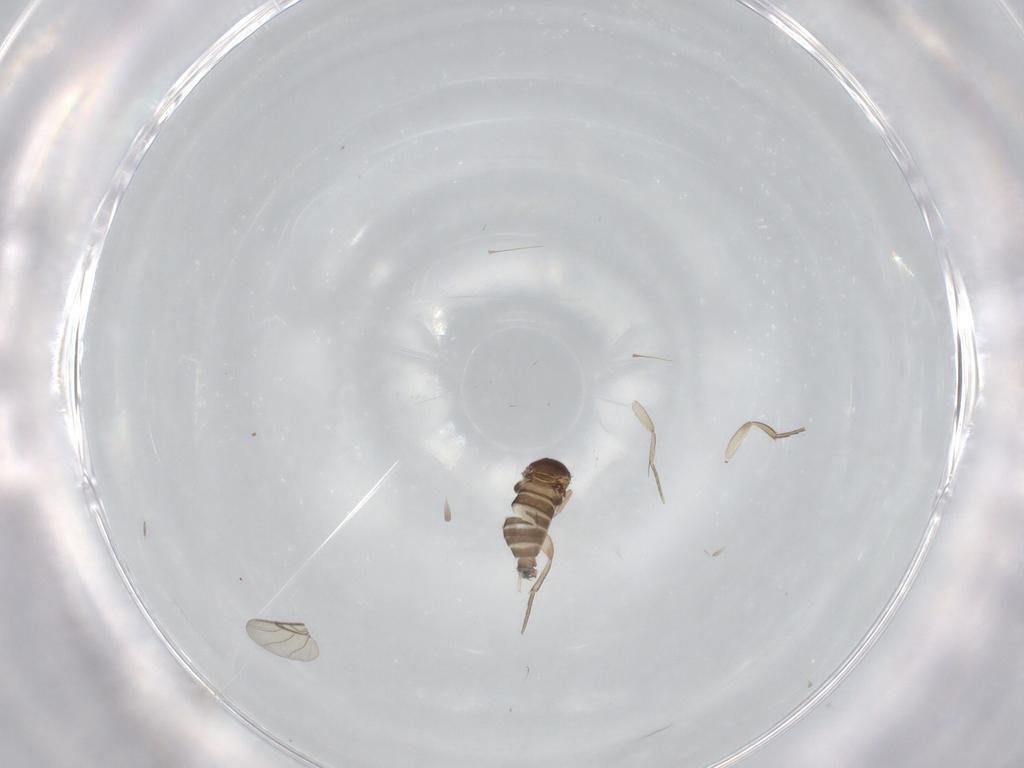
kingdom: Animalia
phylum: Arthropoda
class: Insecta
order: Diptera
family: Phoridae
